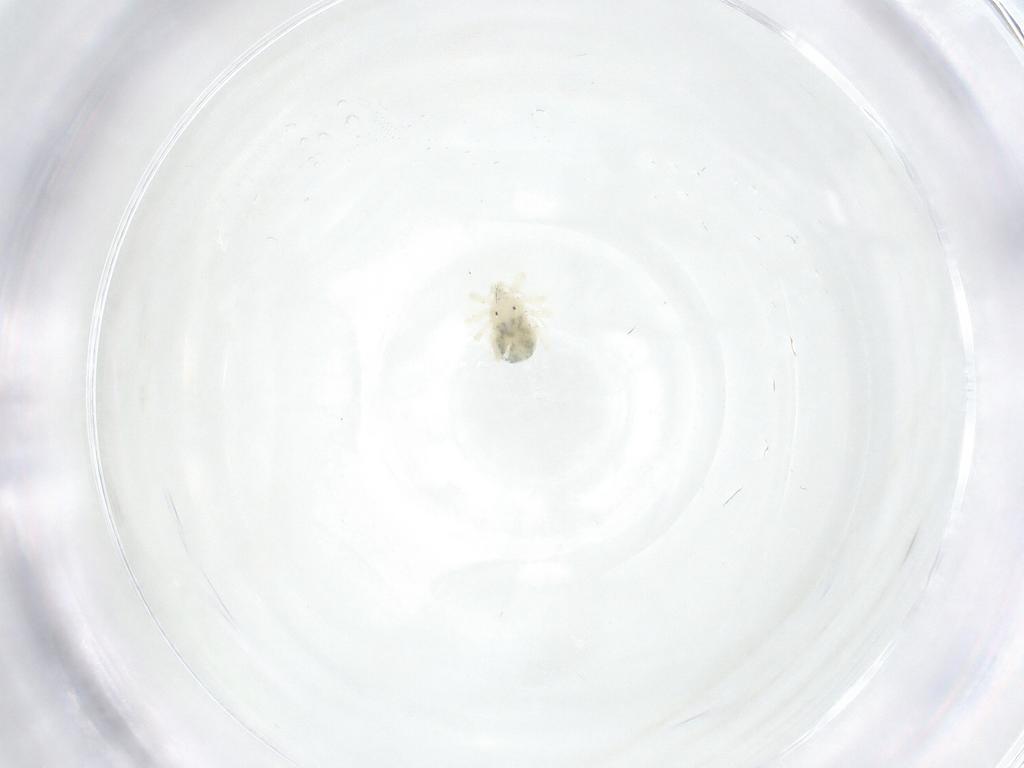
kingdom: Animalia
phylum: Arthropoda
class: Arachnida
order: Trombidiformes
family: Anystidae
